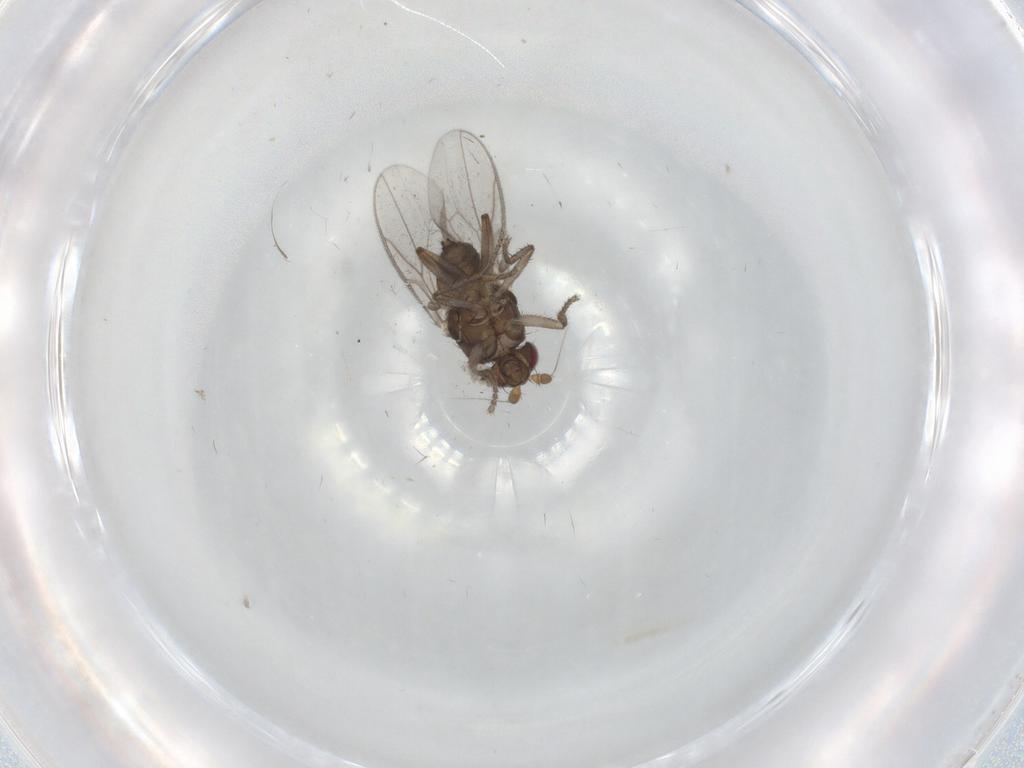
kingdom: Animalia
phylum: Arthropoda
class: Insecta
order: Diptera
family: Sphaeroceridae
